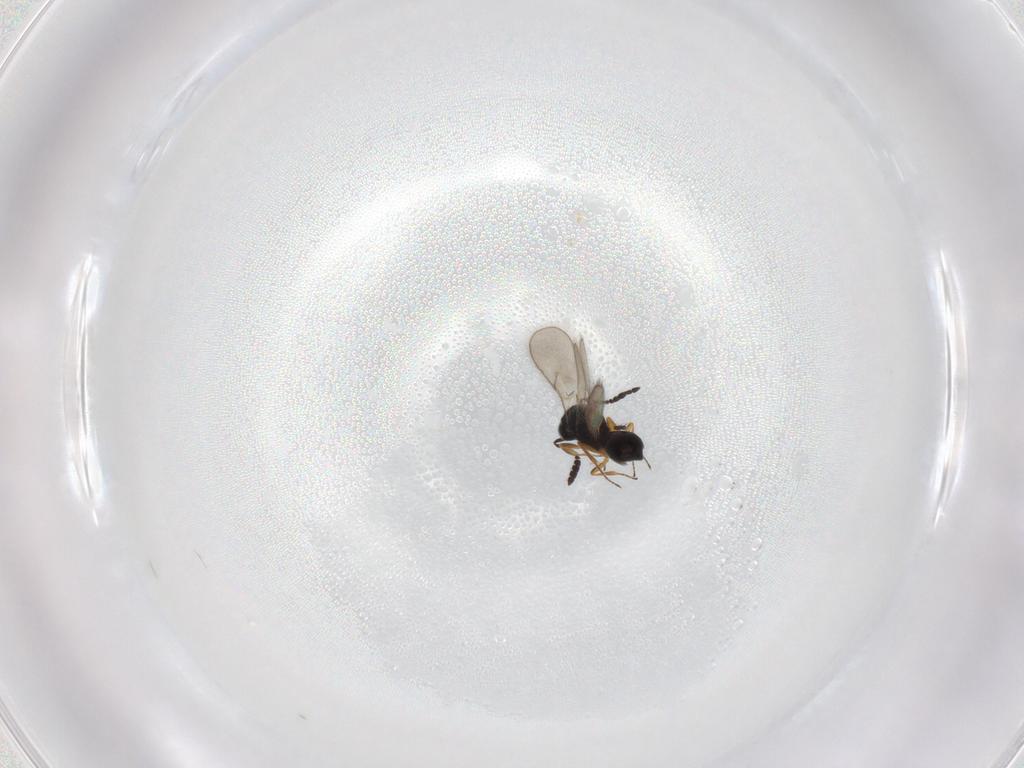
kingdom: Animalia
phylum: Arthropoda
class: Insecta
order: Hymenoptera
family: Scelionidae
